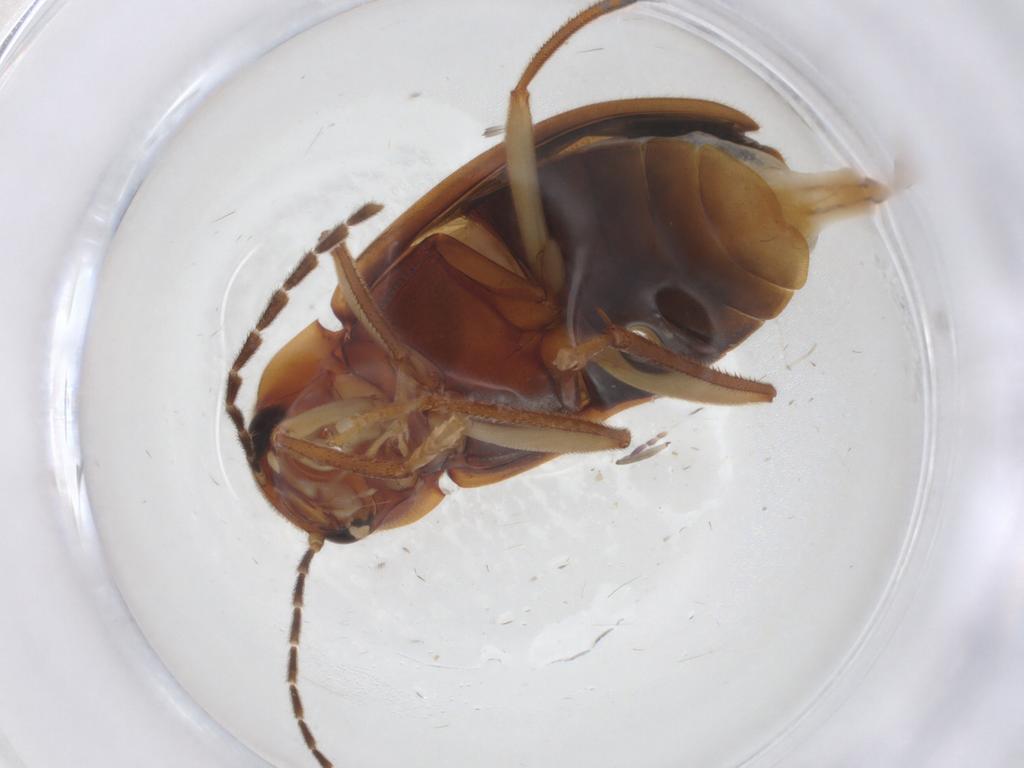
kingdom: Animalia
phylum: Arthropoda
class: Insecta
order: Coleoptera
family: Ptilodactylidae
